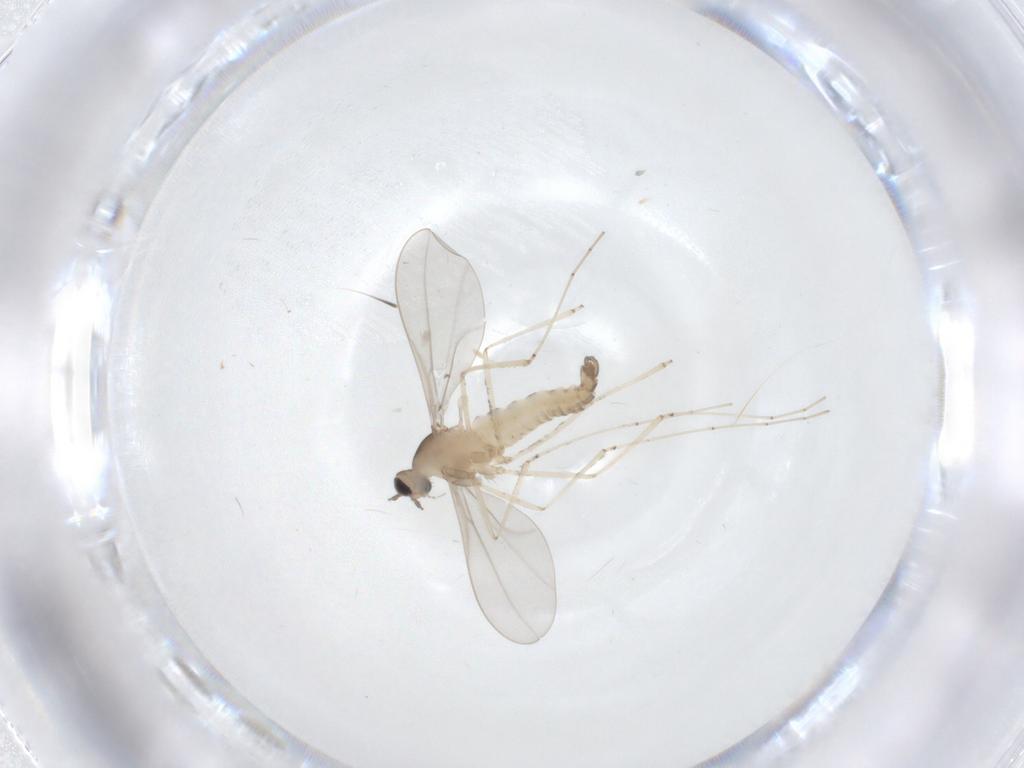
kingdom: Animalia
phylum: Arthropoda
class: Insecta
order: Diptera
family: Cecidomyiidae
